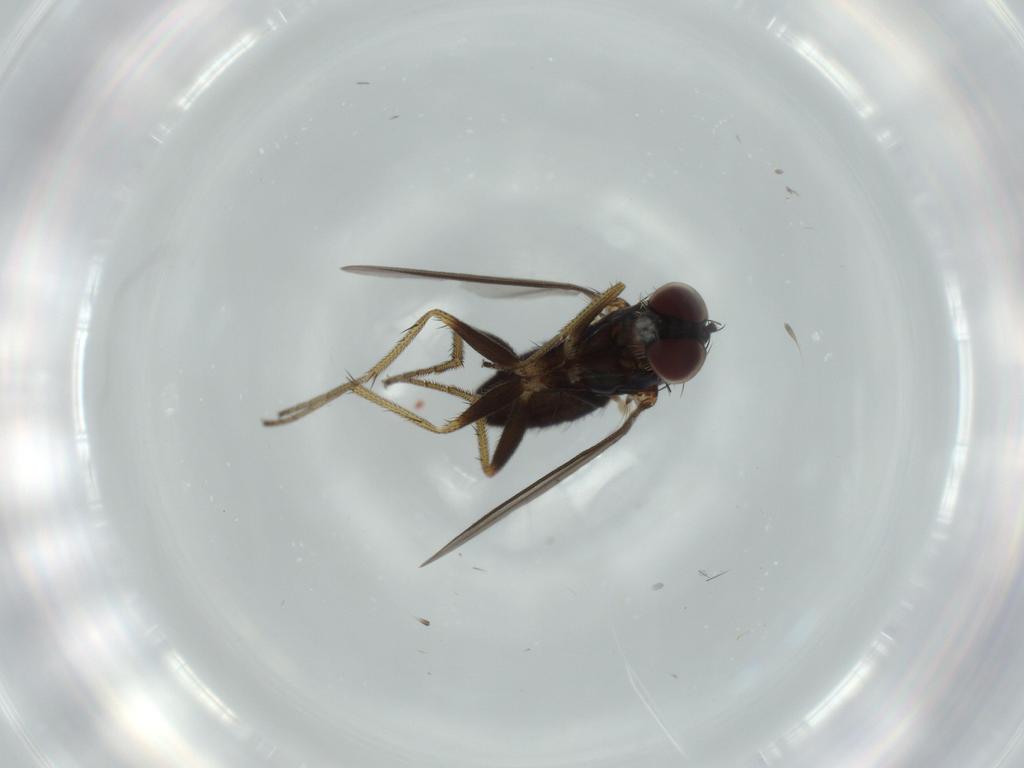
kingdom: Animalia
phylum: Arthropoda
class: Insecta
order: Diptera
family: Dolichopodidae
